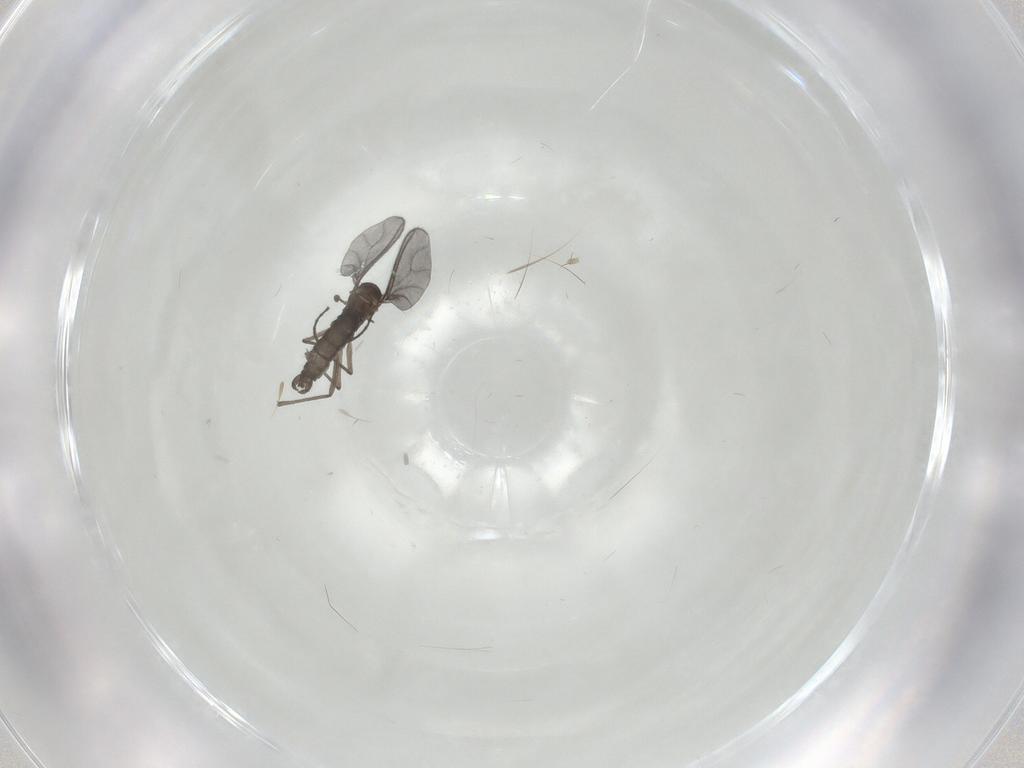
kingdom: Animalia
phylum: Arthropoda
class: Insecta
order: Diptera
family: Sciaridae
